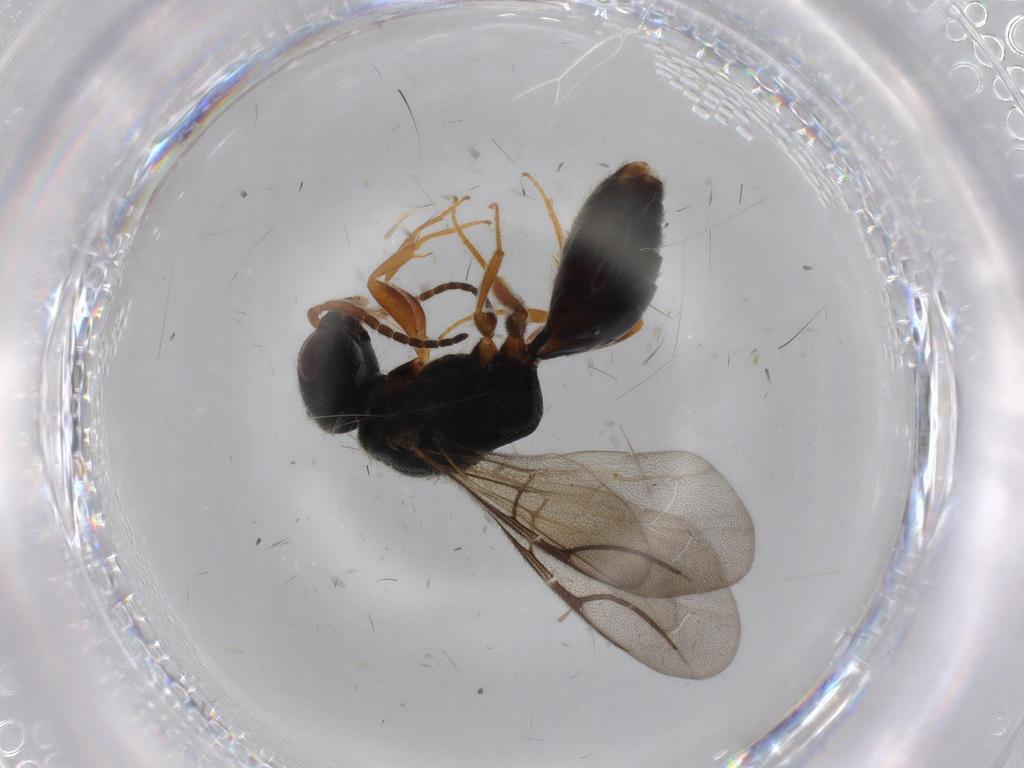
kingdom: Animalia
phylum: Arthropoda
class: Insecta
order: Hymenoptera
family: Bethylidae
